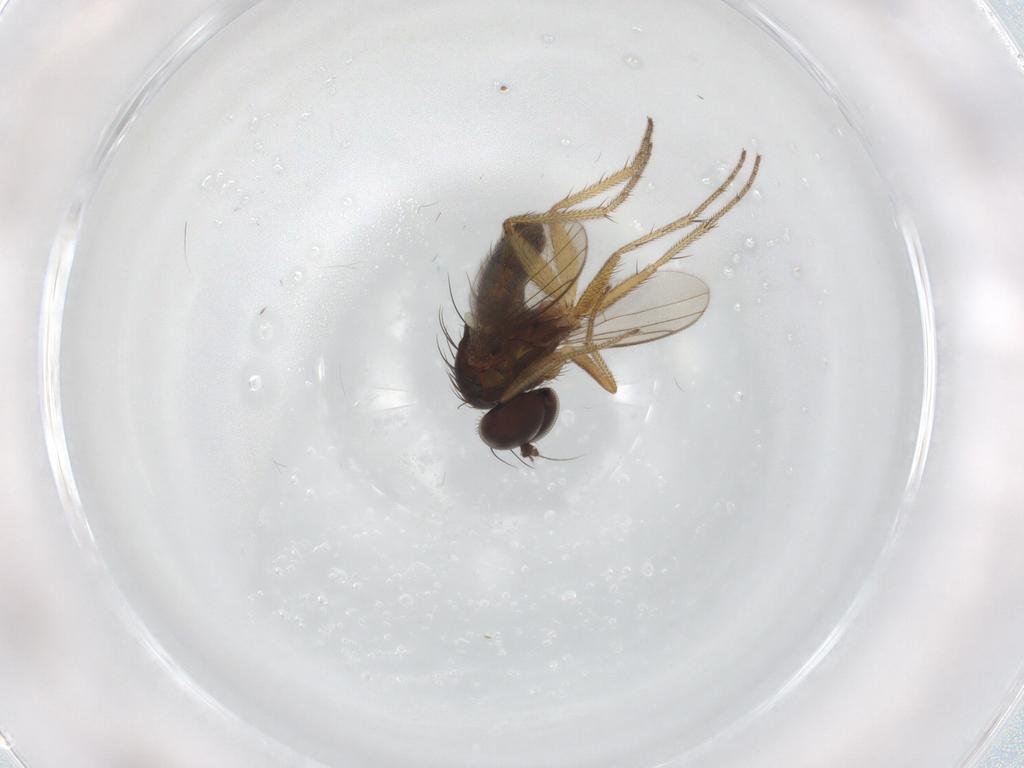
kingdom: Animalia
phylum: Arthropoda
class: Insecta
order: Diptera
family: Dolichopodidae
